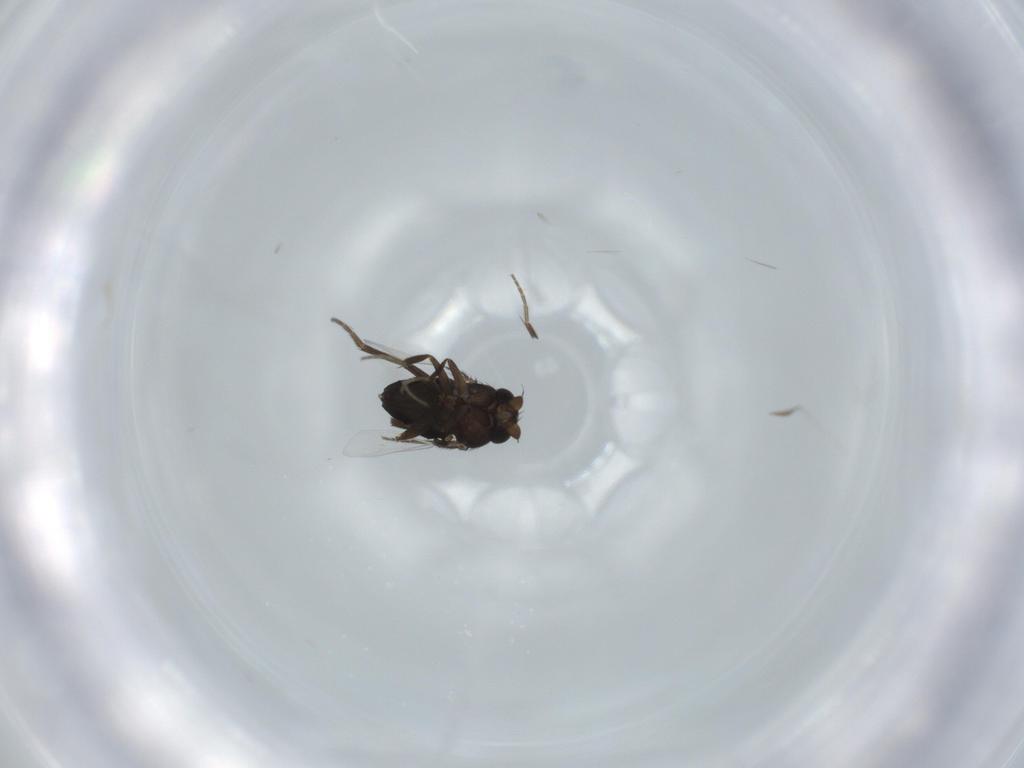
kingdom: Animalia
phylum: Arthropoda
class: Insecta
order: Diptera
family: Phoridae
